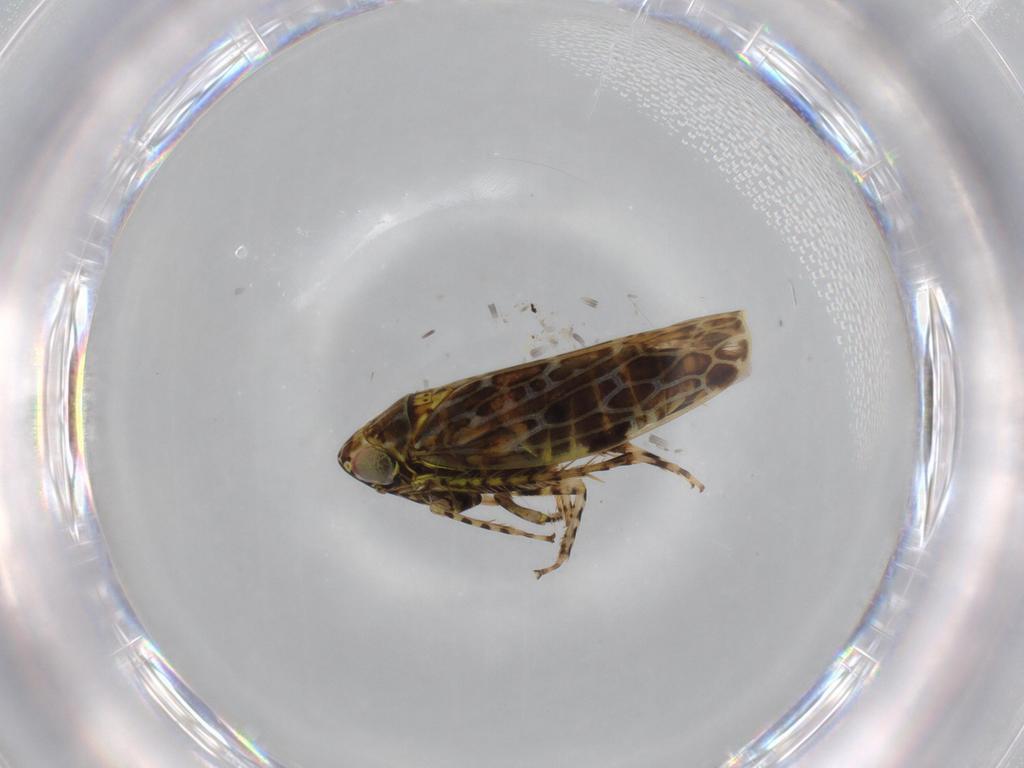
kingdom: Animalia
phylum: Arthropoda
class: Insecta
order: Hemiptera
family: Cicadellidae
